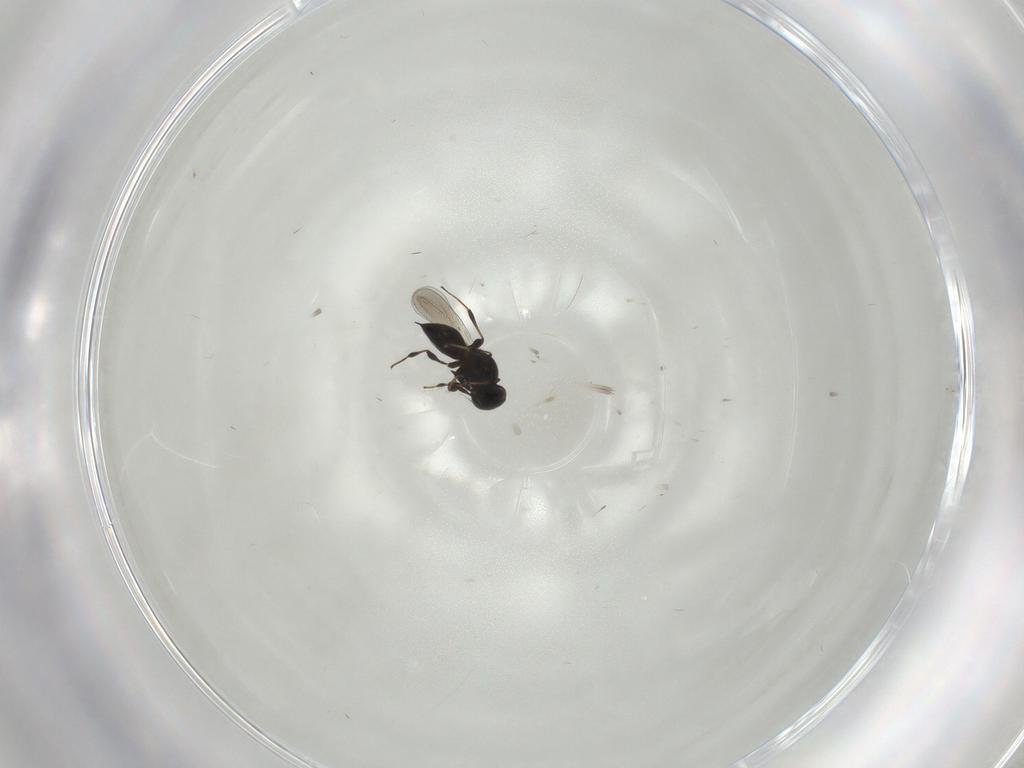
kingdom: Animalia
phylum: Arthropoda
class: Insecta
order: Hymenoptera
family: Platygastridae
